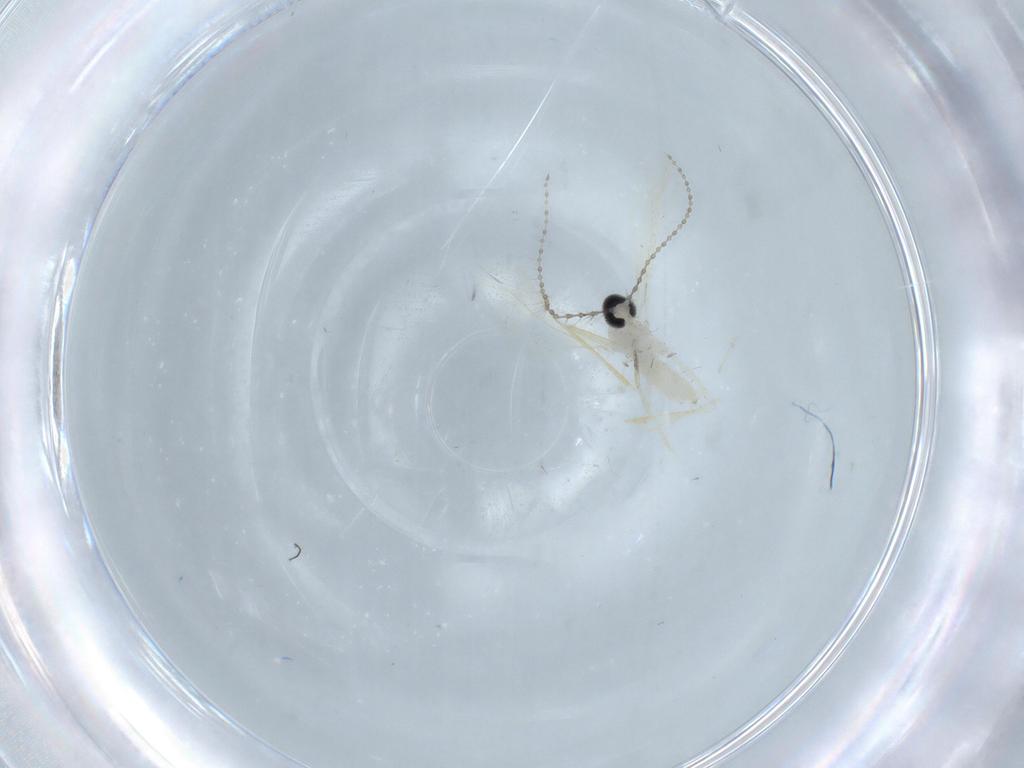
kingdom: Animalia
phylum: Arthropoda
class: Insecta
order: Diptera
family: Cecidomyiidae
